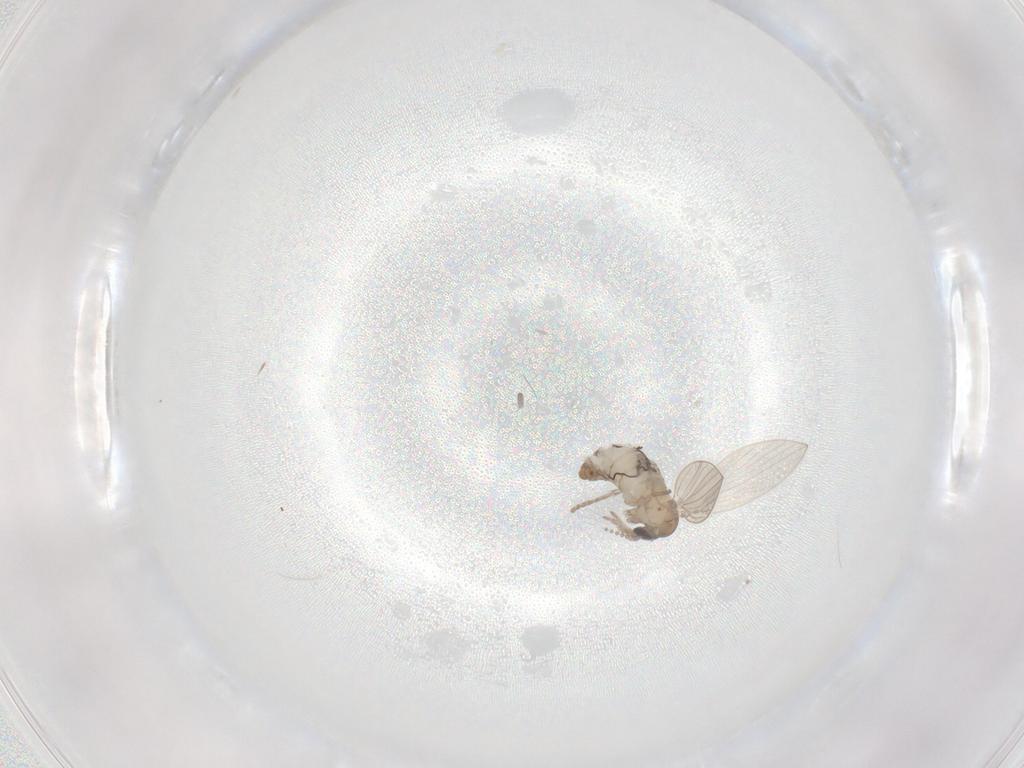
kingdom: Animalia
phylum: Arthropoda
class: Insecta
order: Diptera
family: Psychodidae
